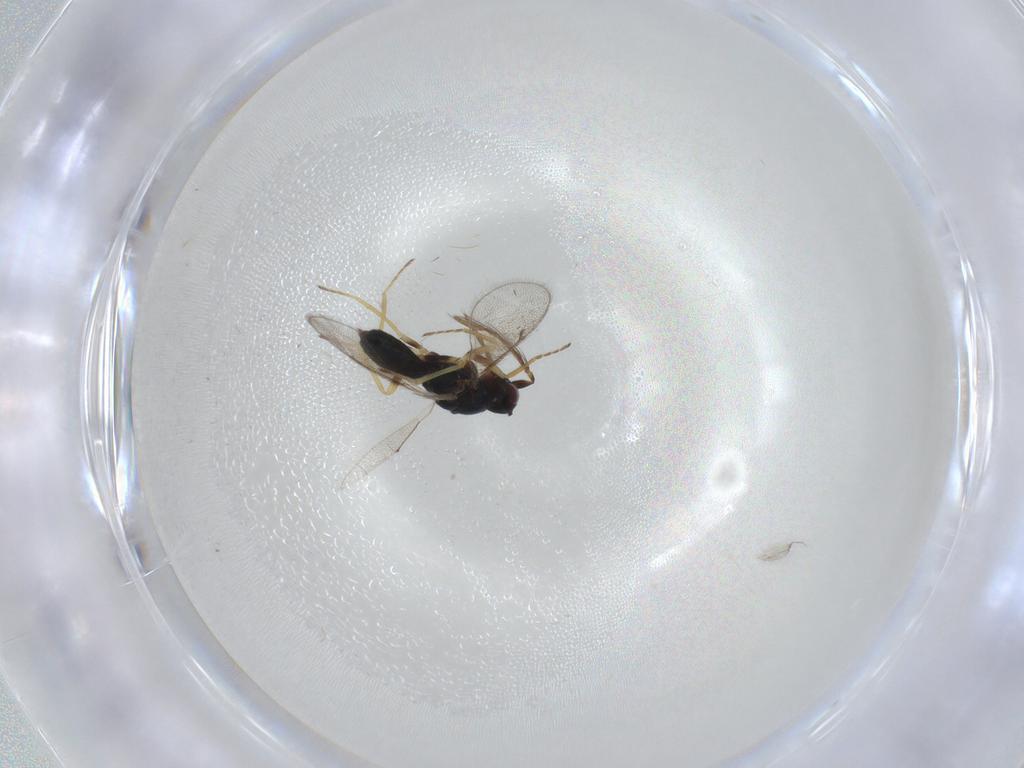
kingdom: Animalia
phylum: Arthropoda
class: Insecta
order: Hymenoptera
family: Eulophidae
